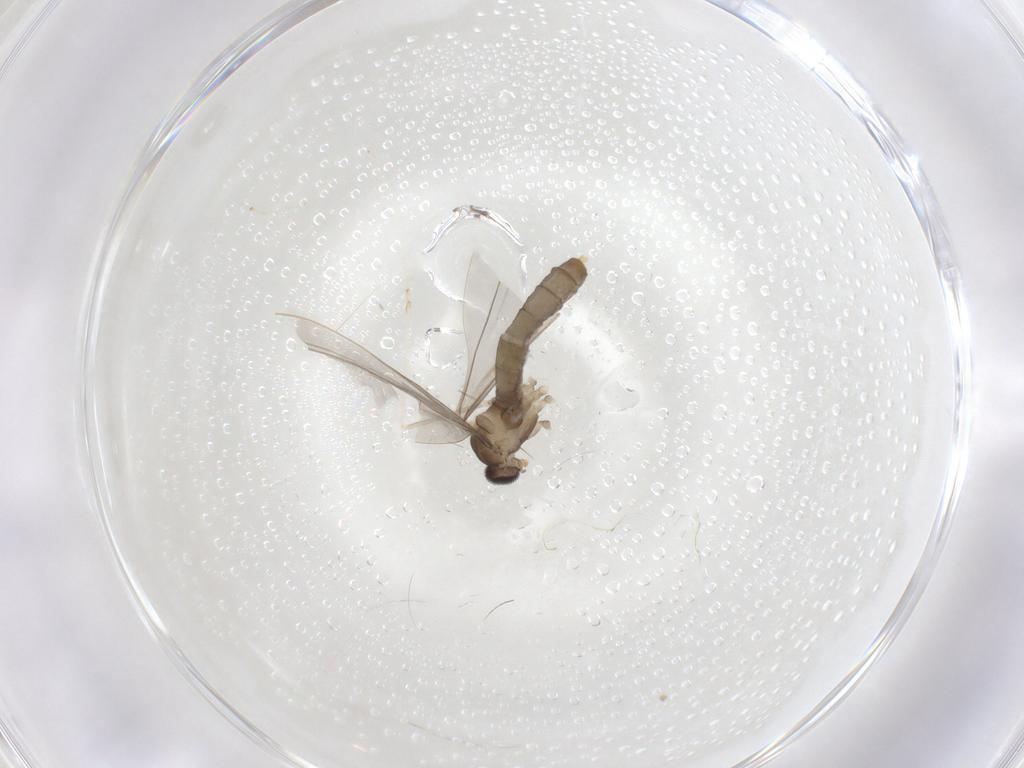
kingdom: Animalia
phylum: Arthropoda
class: Insecta
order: Diptera
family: Cecidomyiidae
